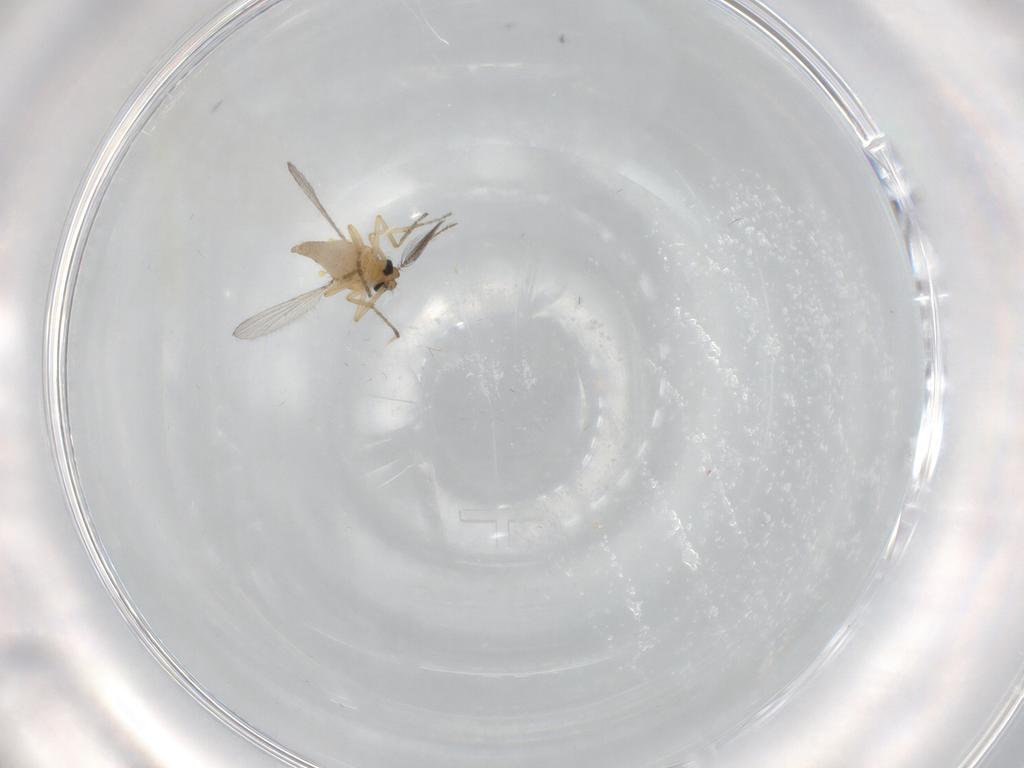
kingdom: Animalia
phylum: Arthropoda
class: Insecta
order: Diptera
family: Ceratopogonidae
